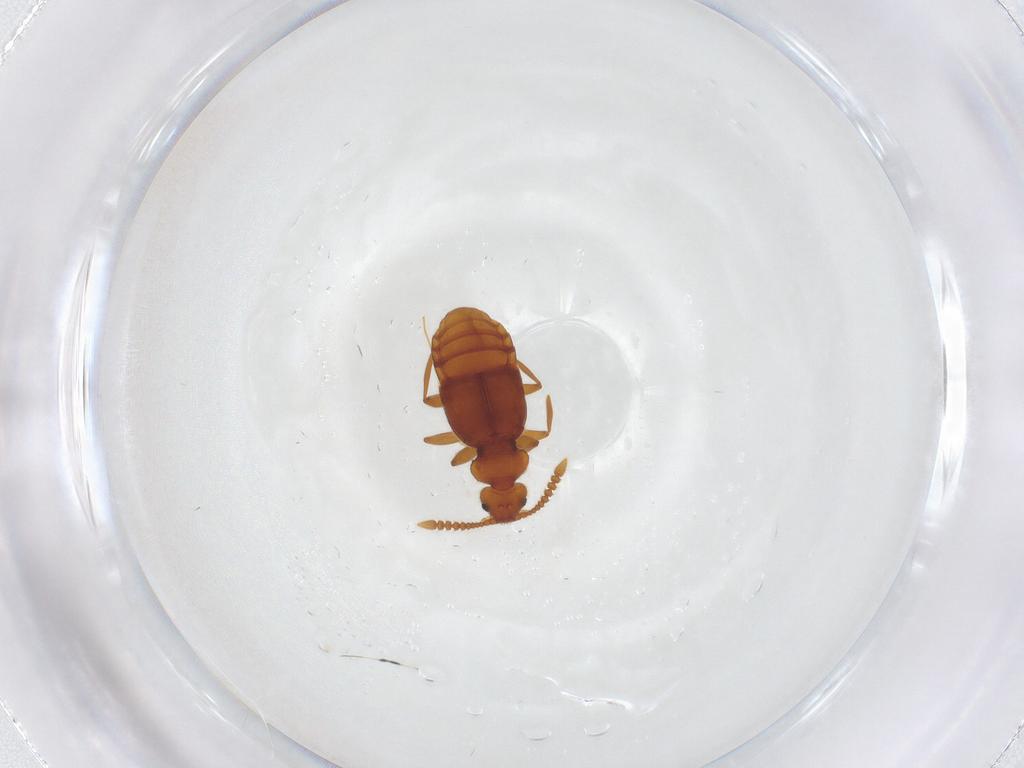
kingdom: Animalia
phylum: Arthropoda
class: Insecta
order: Coleoptera
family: Staphylinidae
